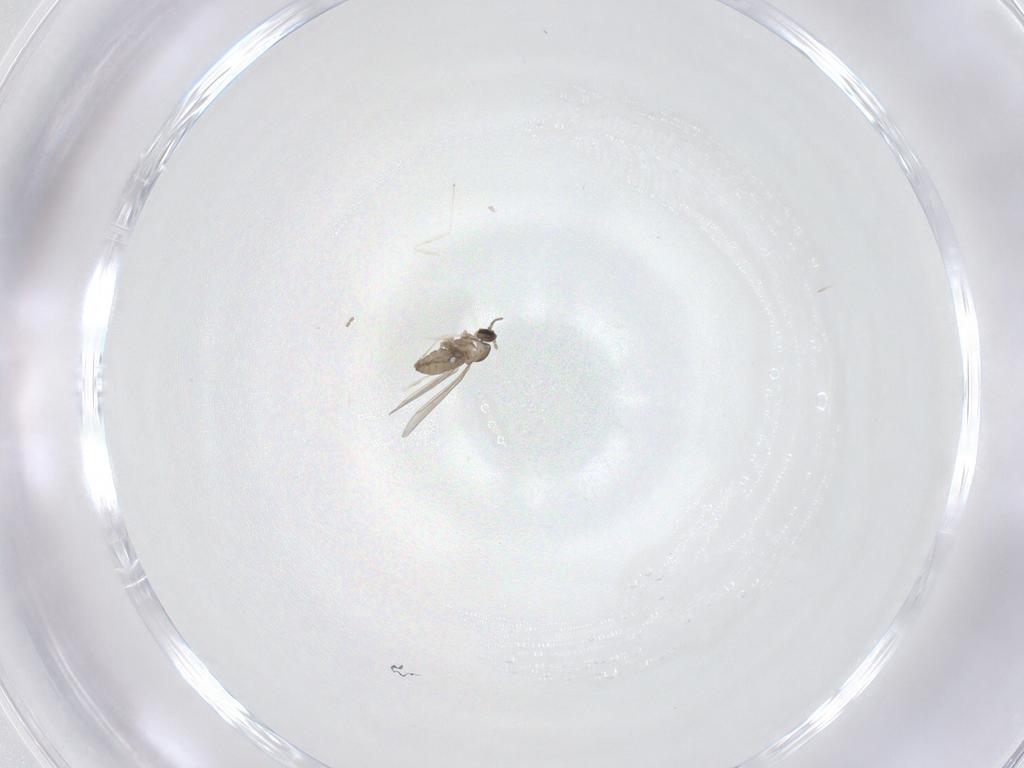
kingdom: Animalia
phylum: Arthropoda
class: Insecta
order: Diptera
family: Cecidomyiidae
